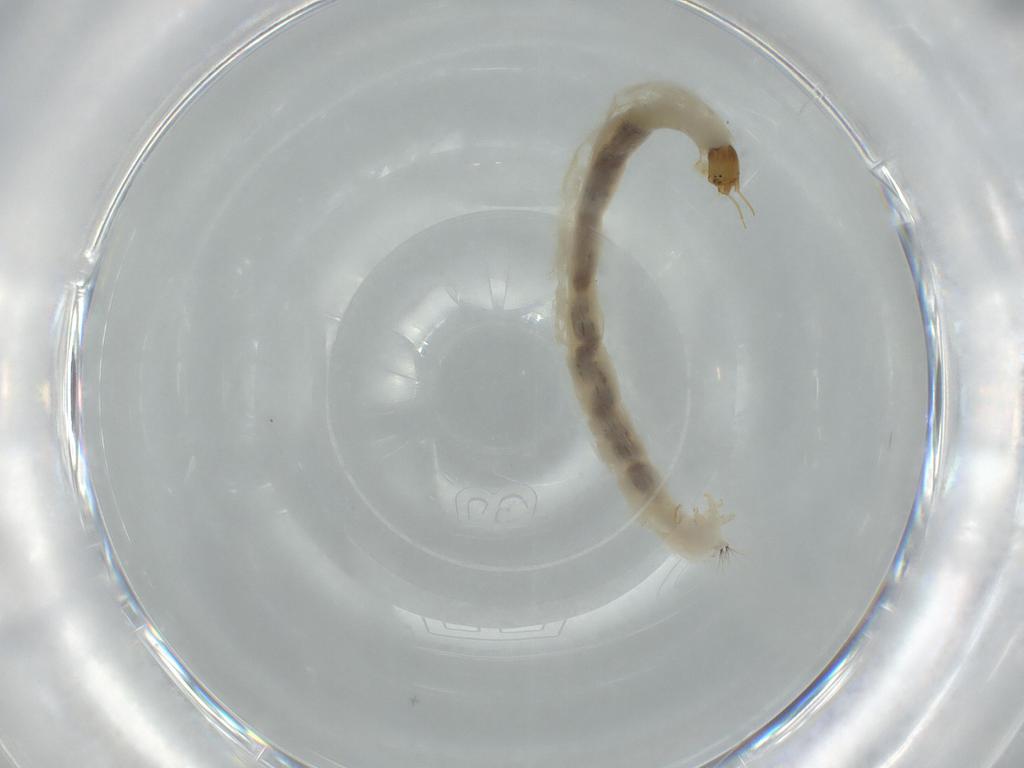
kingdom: Animalia
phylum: Arthropoda
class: Insecta
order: Diptera
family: Chironomidae
